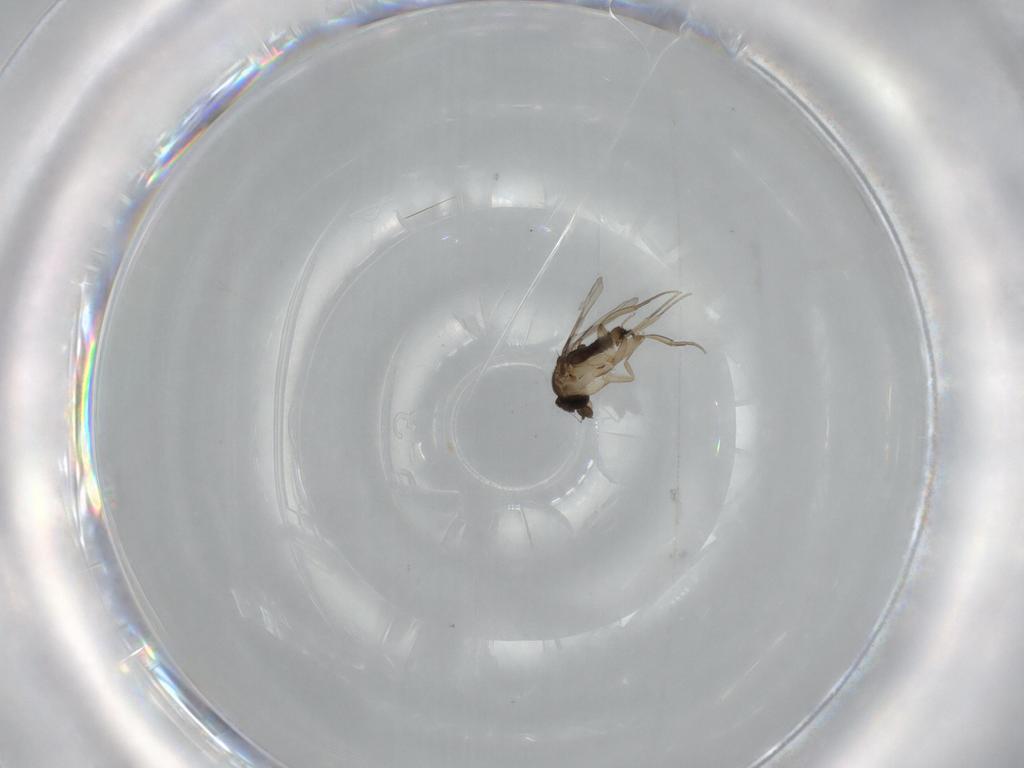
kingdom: Animalia
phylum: Arthropoda
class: Insecta
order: Diptera
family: Phoridae
